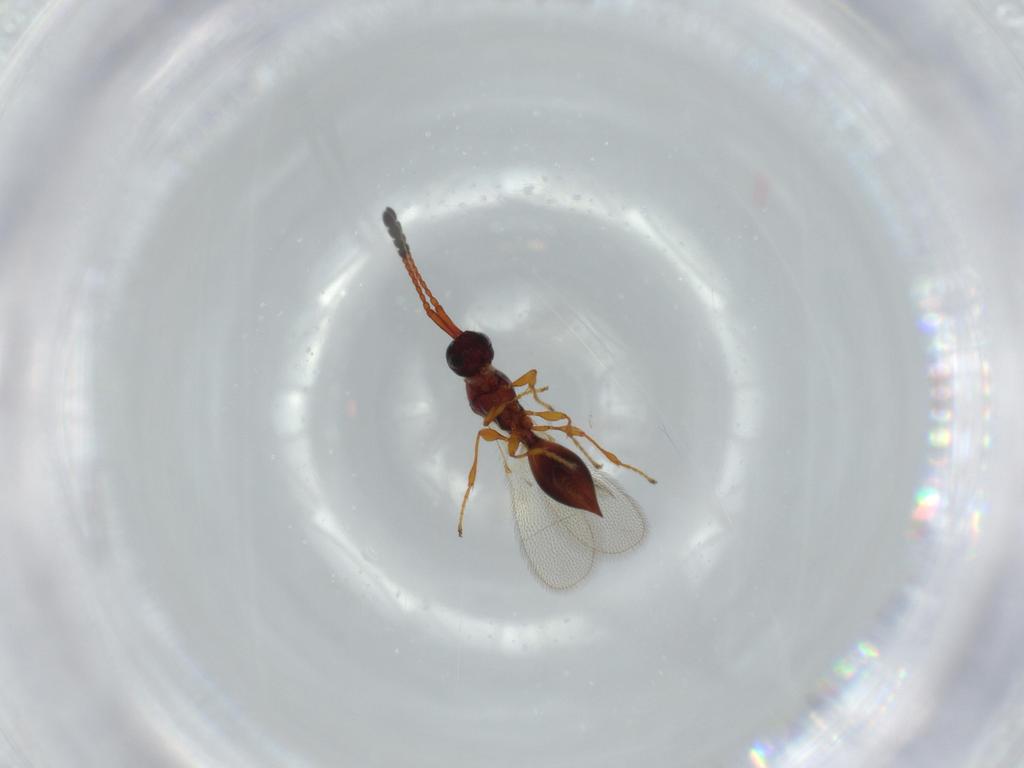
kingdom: Animalia
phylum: Arthropoda
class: Insecta
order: Hymenoptera
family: Diapriidae
